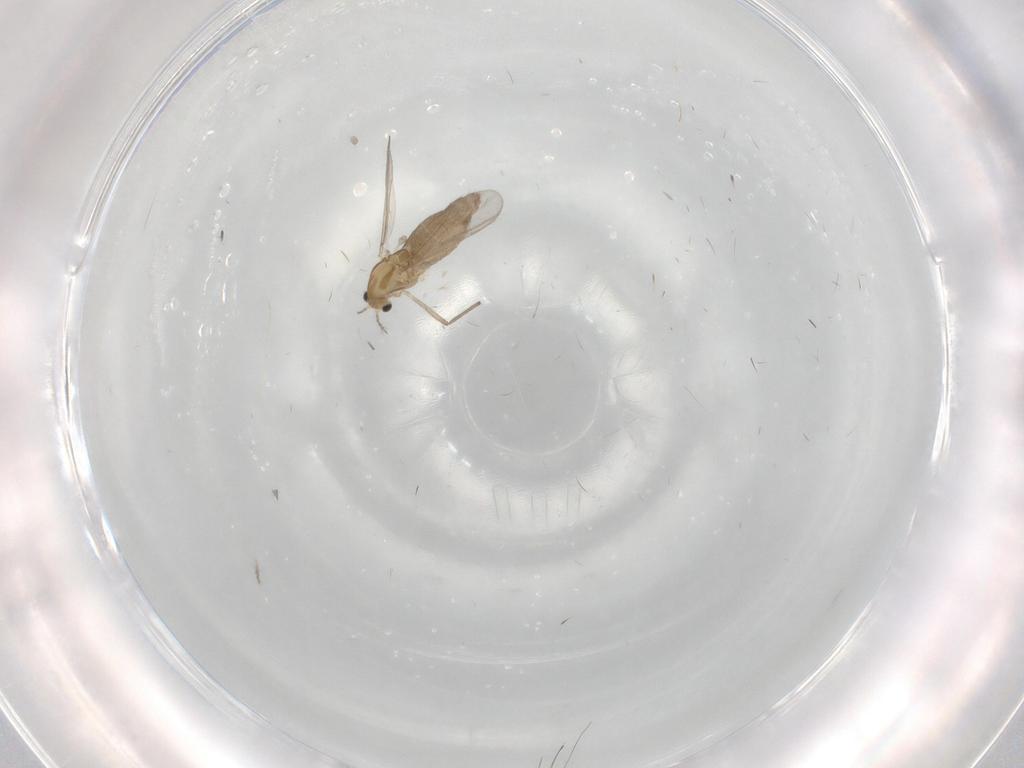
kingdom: Animalia
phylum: Arthropoda
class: Insecta
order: Diptera
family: Chironomidae
